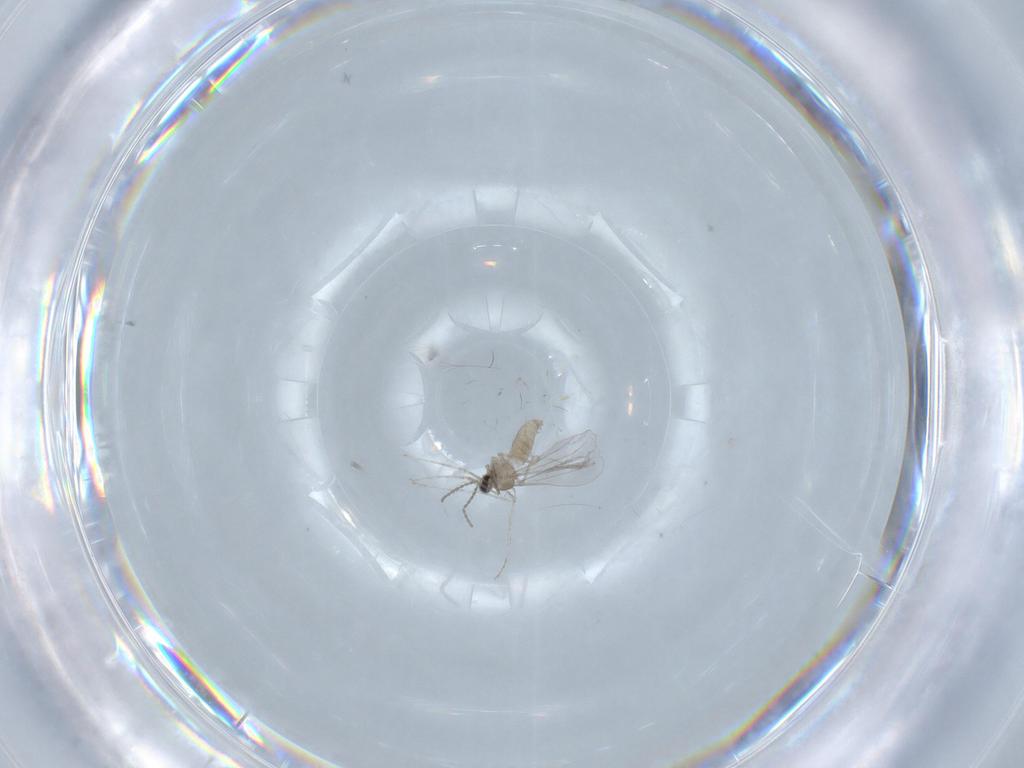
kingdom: Animalia
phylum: Arthropoda
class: Insecta
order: Diptera
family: Cecidomyiidae
